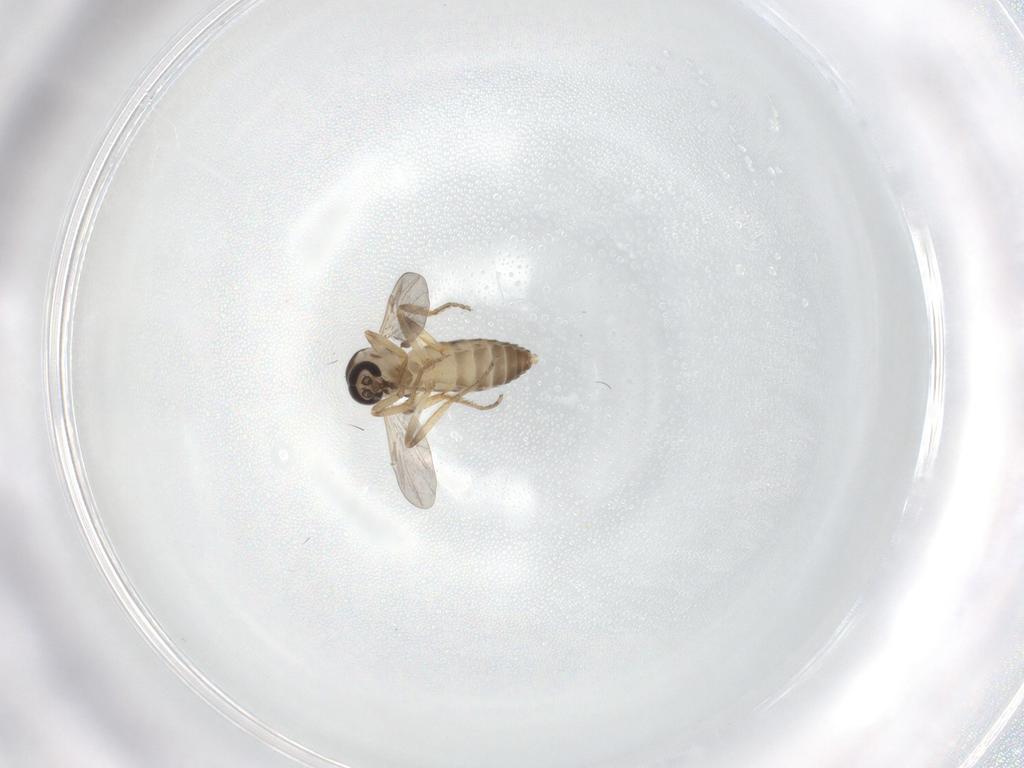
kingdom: Animalia
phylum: Arthropoda
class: Insecta
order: Diptera
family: Ceratopogonidae
